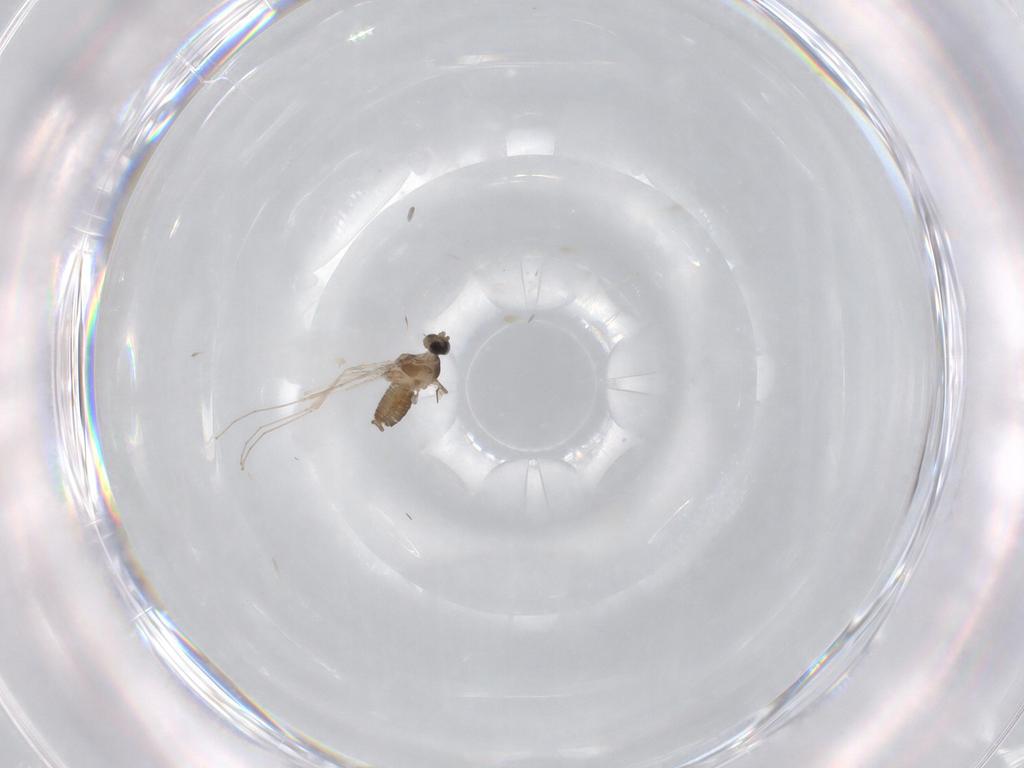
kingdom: Animalia
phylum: Arthropoda
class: Insecta
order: Diptera
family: Cecidomyiidae
